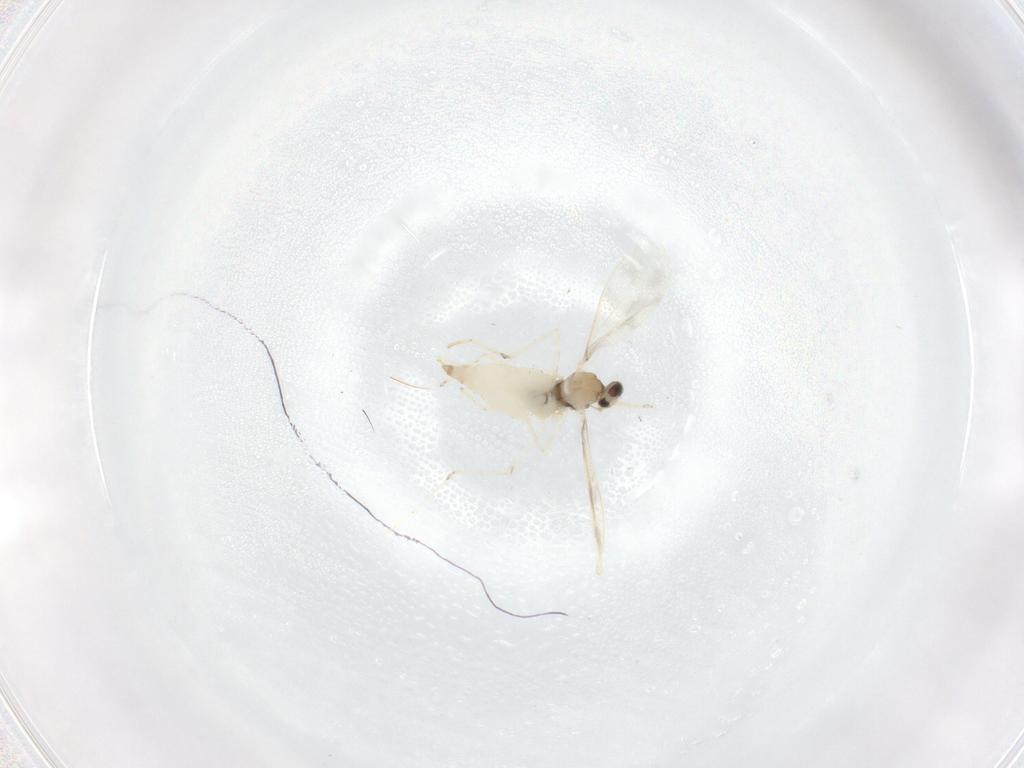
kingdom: Animalia
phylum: Arthropoda
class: Insecta
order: Diptera
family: Cecidomyiidae
